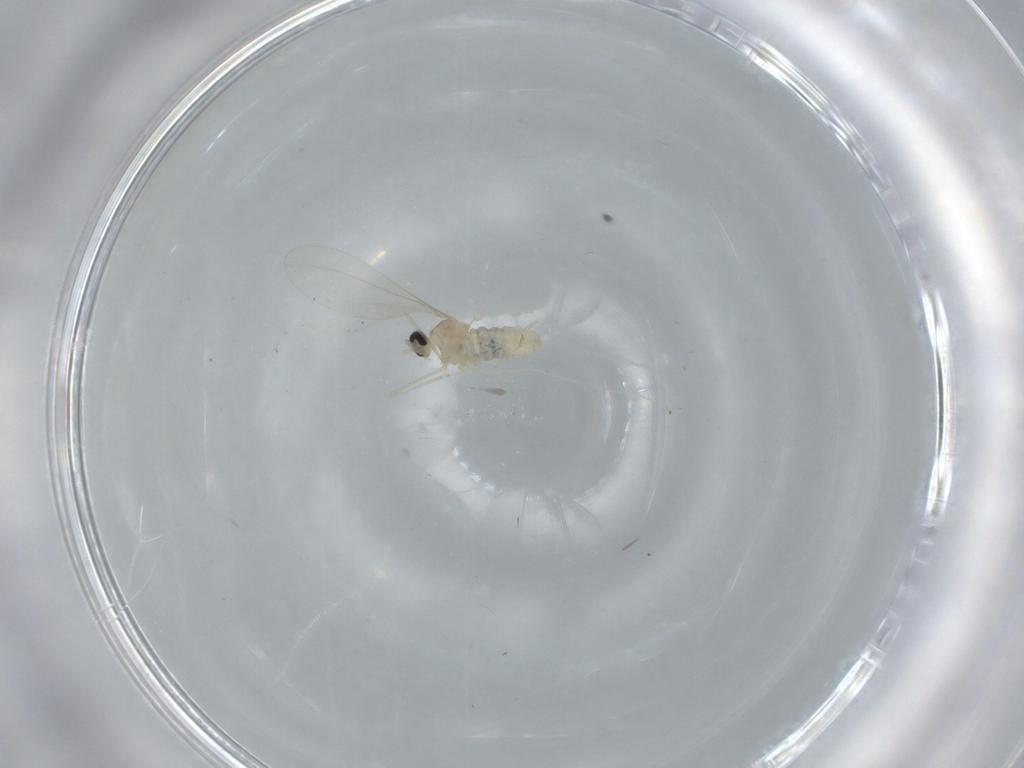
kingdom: Animalia
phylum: Arthropoda
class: Insecta
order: Diptera
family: Cecidomyiidae
